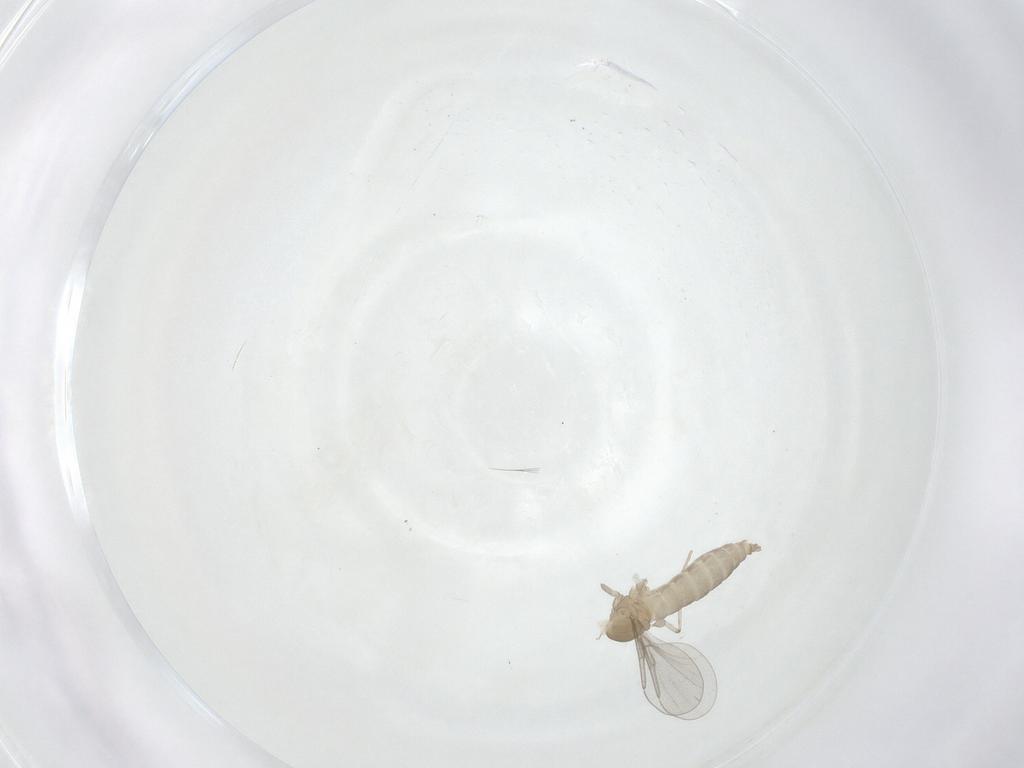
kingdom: Animalia
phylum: Arthropoda
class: Insecta
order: Diptera
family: Cecidomyiidae
